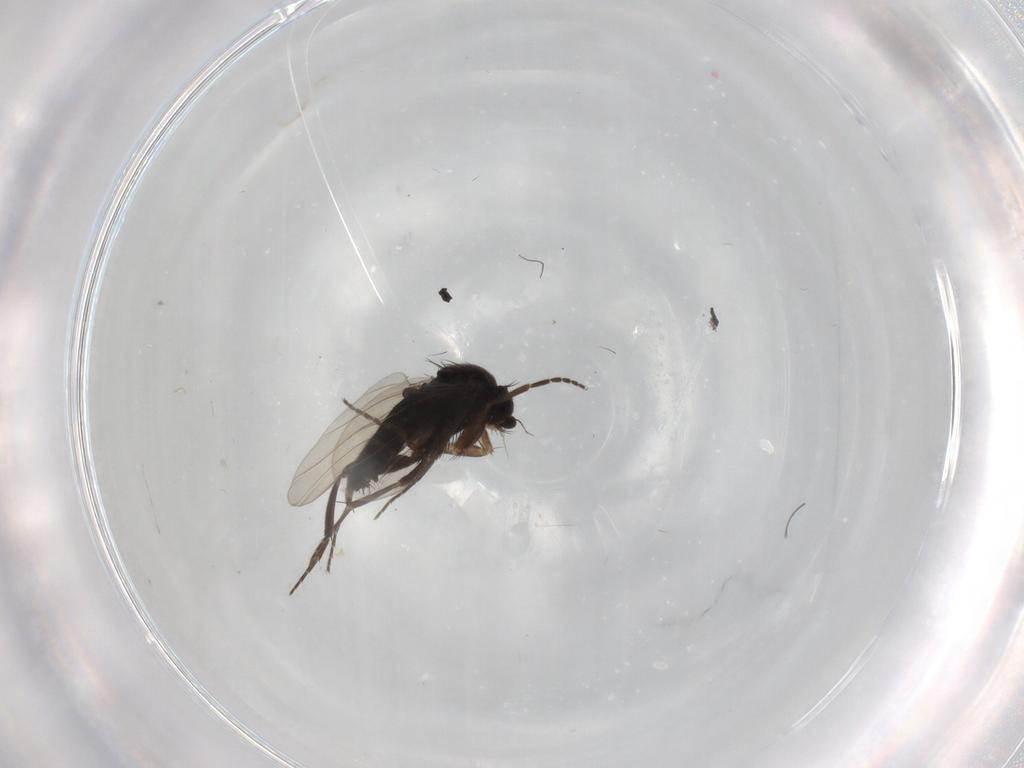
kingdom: Animalia
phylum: Arthropoda
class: Insecta
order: Diptera
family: Phoridae
